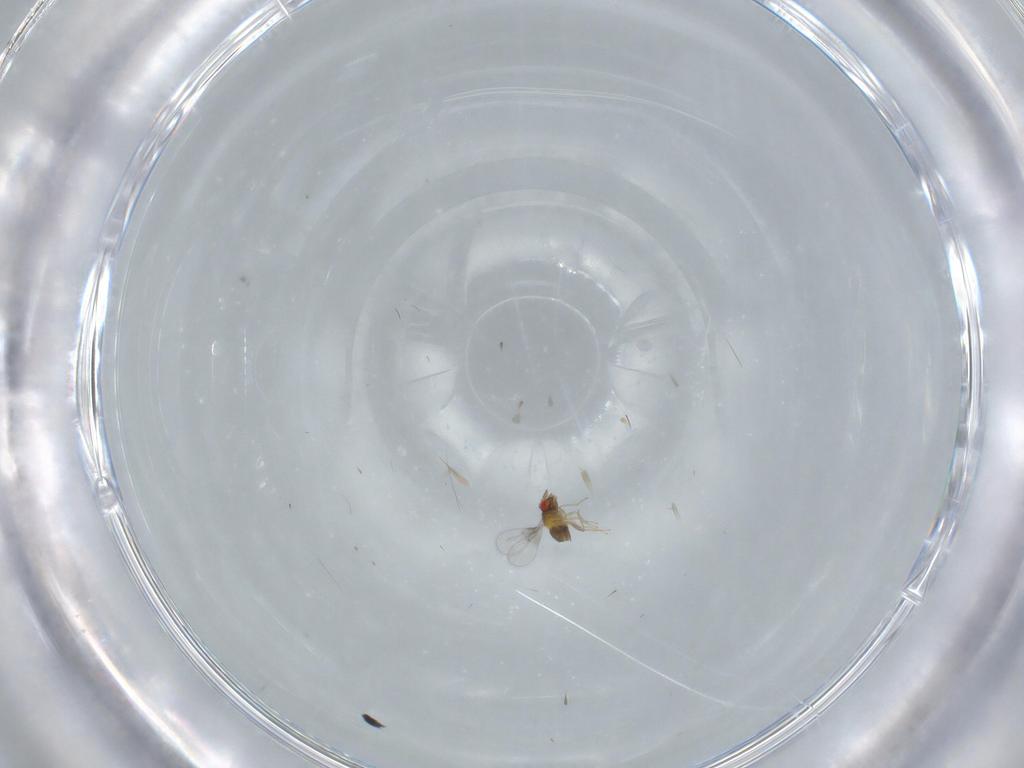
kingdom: Animalia
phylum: Arthropoda
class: Insecta
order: Hymenoptera
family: Trichogrammatidae
